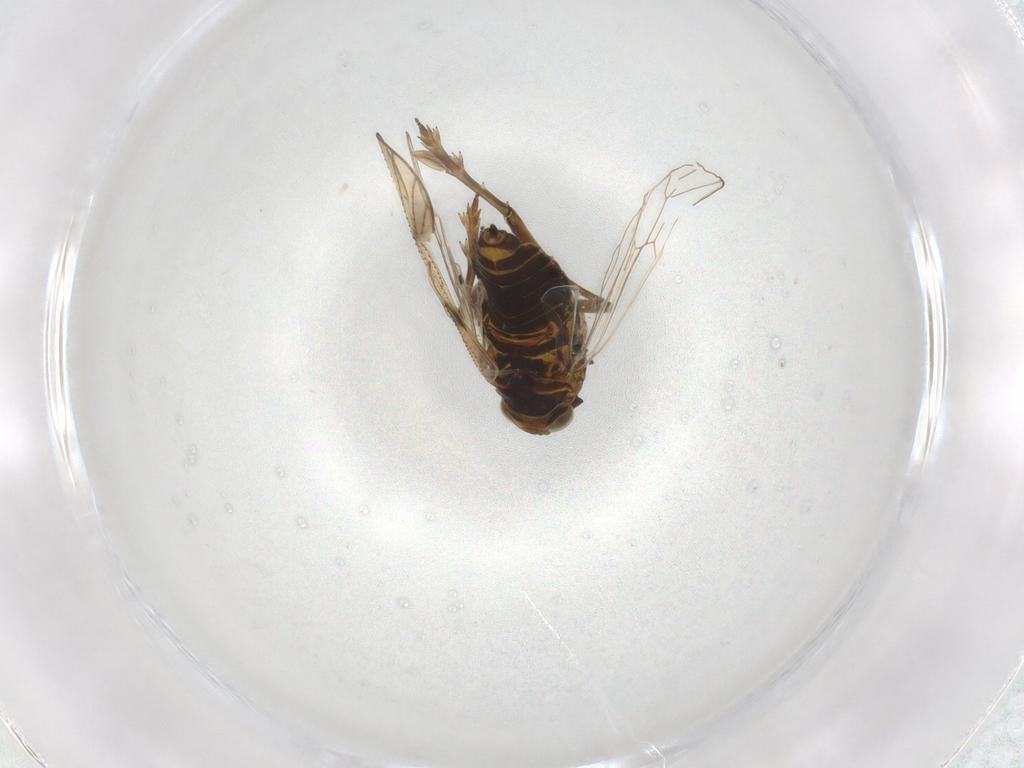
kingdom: Animalia
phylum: Arthropoda
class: Insecta
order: Hemiptera
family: Delphacidae
